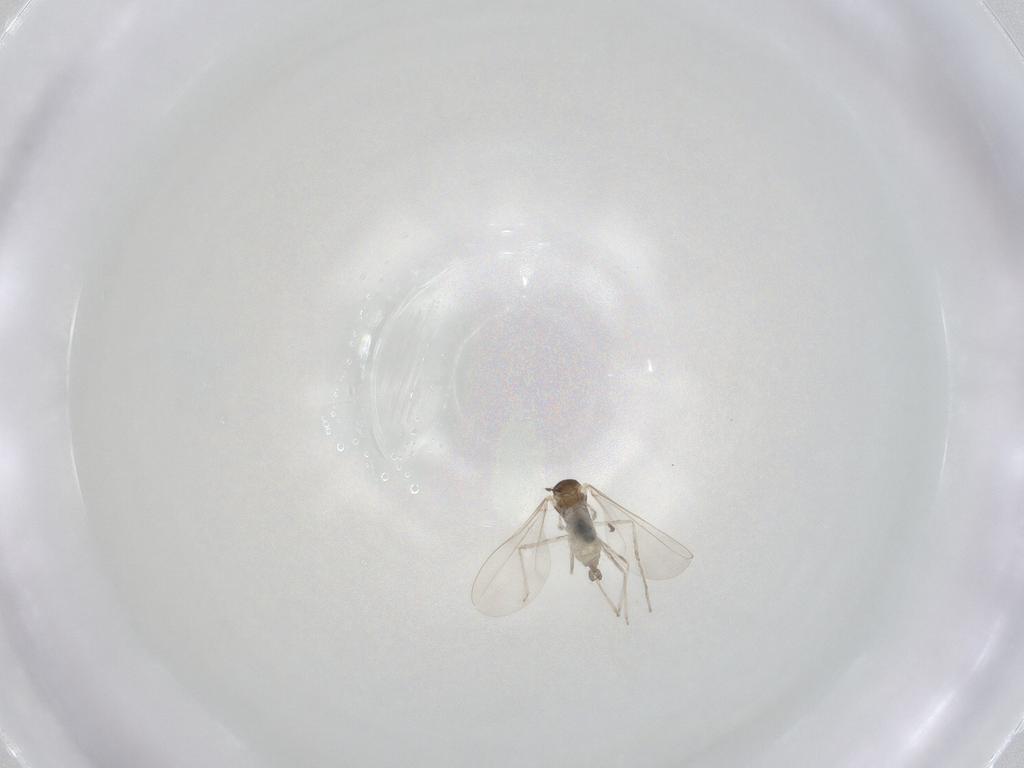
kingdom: Animalia
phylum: Arthropoda
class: Insecta
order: Diptera
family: Cecidomyiidae
